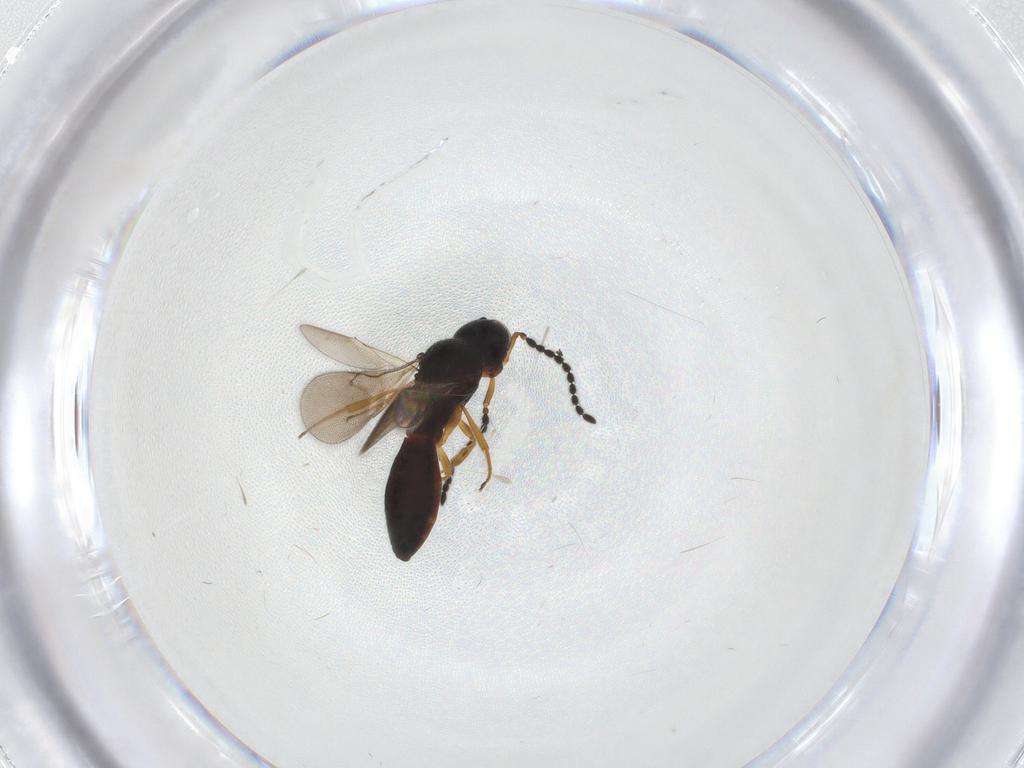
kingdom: Animalia
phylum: Arthropoda
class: Insecta
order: Hymenoptera
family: Scelionidae
